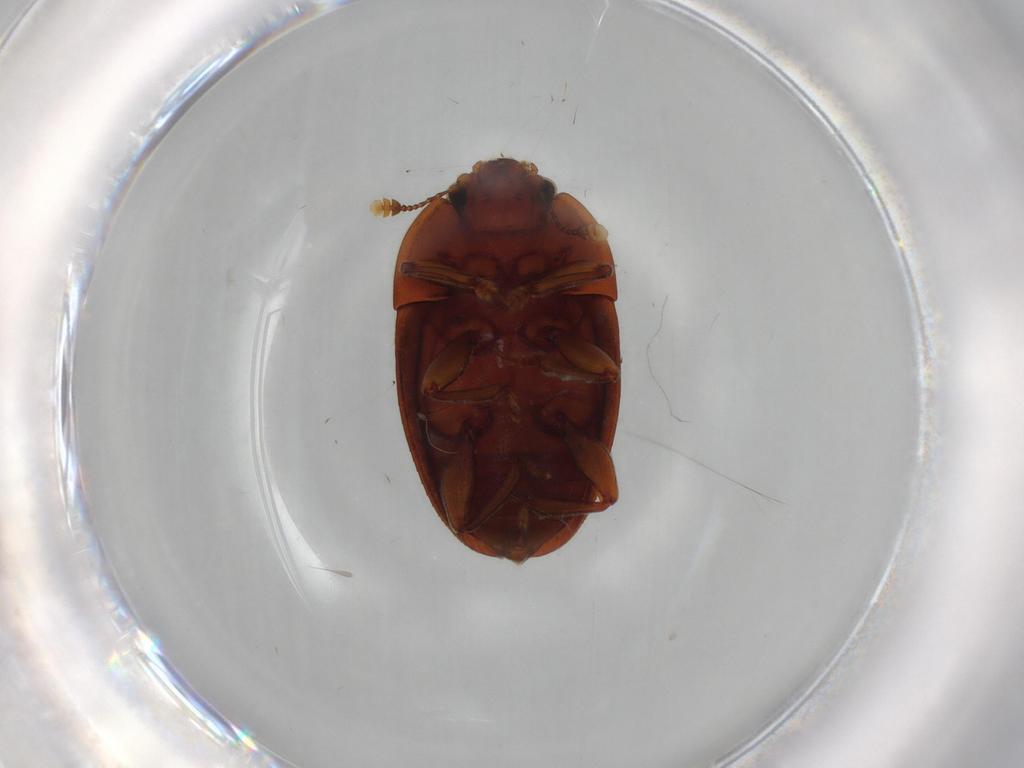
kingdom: Animalia
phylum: Arthropoda
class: Insecta
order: Coleoptera
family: Nitidulidae
